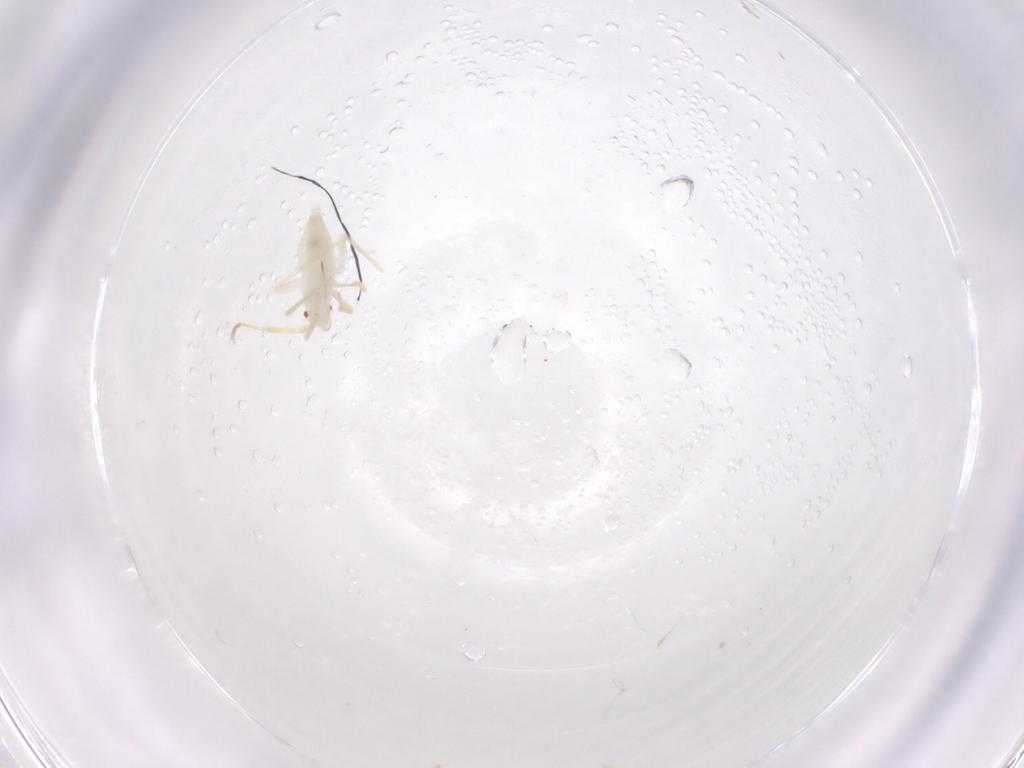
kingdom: Animalia
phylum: Arthropoda
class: Insecta
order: Hemiptera
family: Miridae
